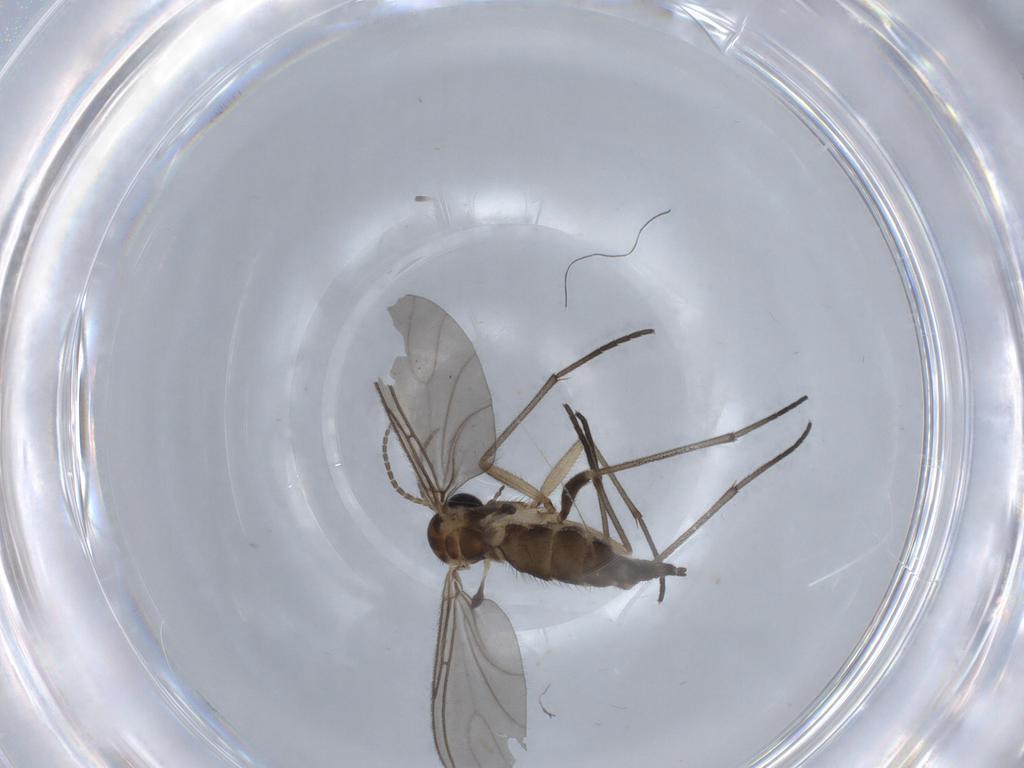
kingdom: Animalia
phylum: Arthropoda
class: Insecta
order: Diptera
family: Sciaridae
